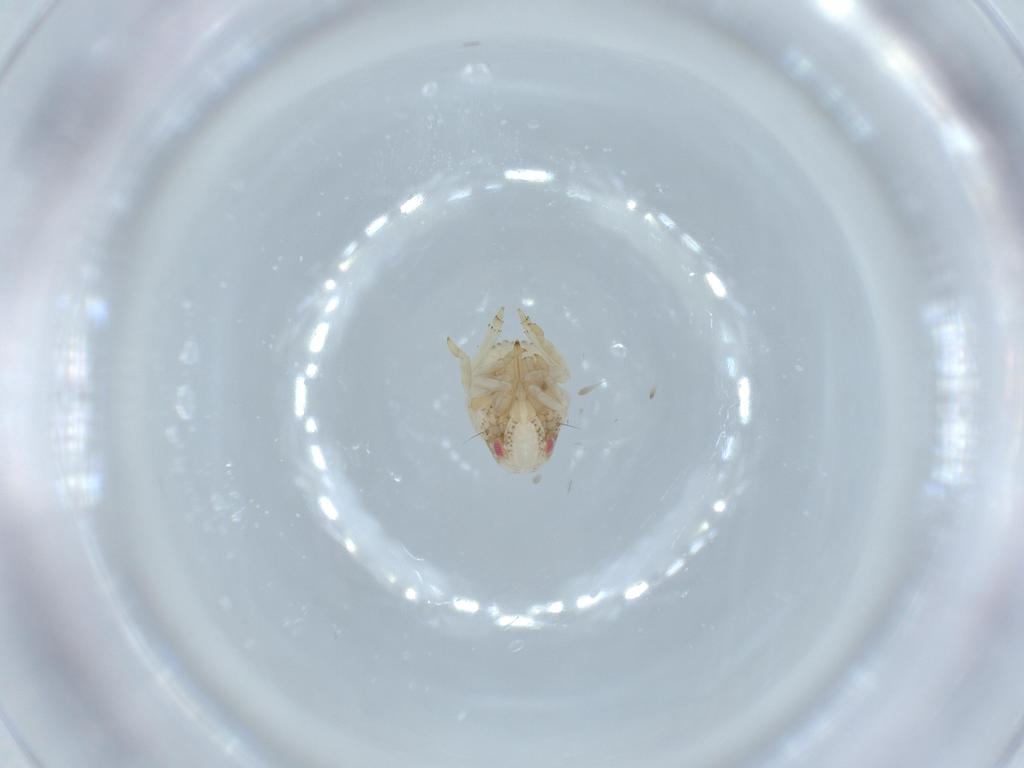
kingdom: Animalia
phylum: Arthropoda
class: Insecta
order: Hemiptera
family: Acanaloniidae
